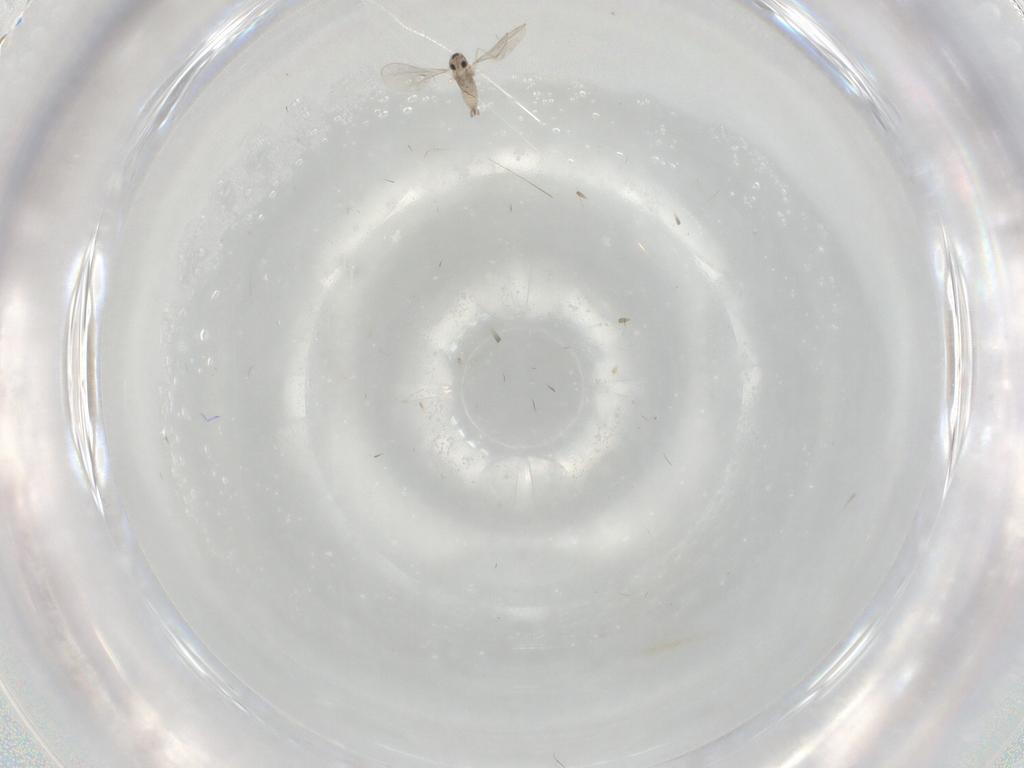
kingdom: Animalia
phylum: Arthropoda
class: Insecta
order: Diptera
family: Cecidomyiidae
